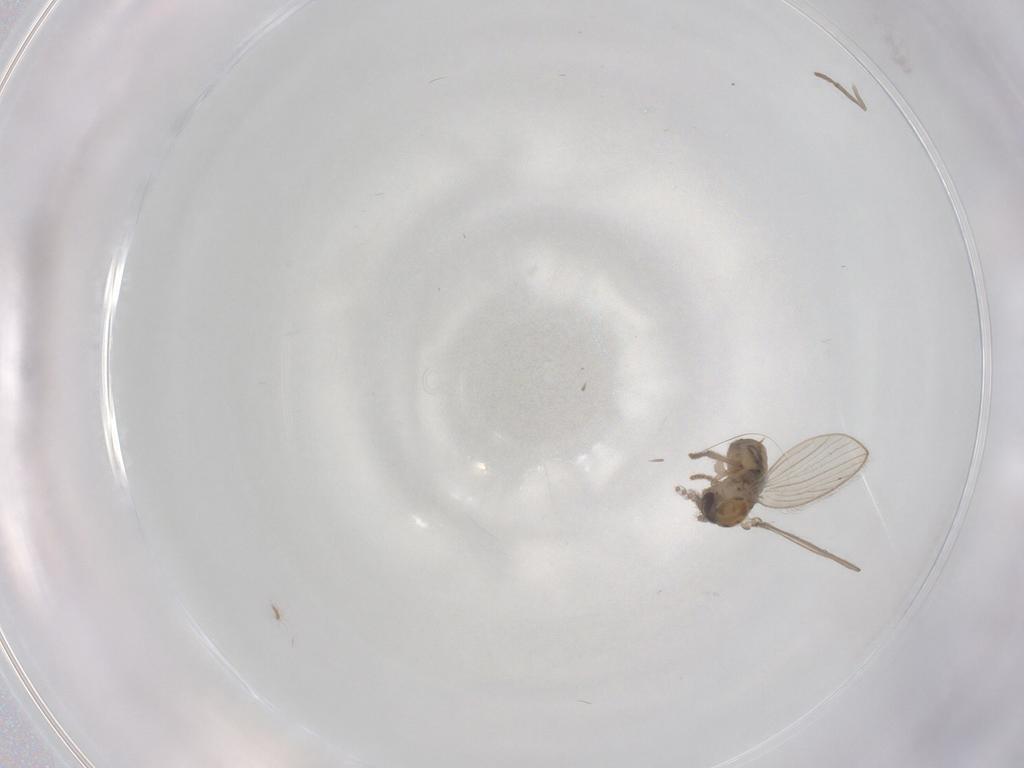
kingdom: Animalia
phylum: Arthropoda
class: Insecta
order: Diptera
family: Psychodidae
